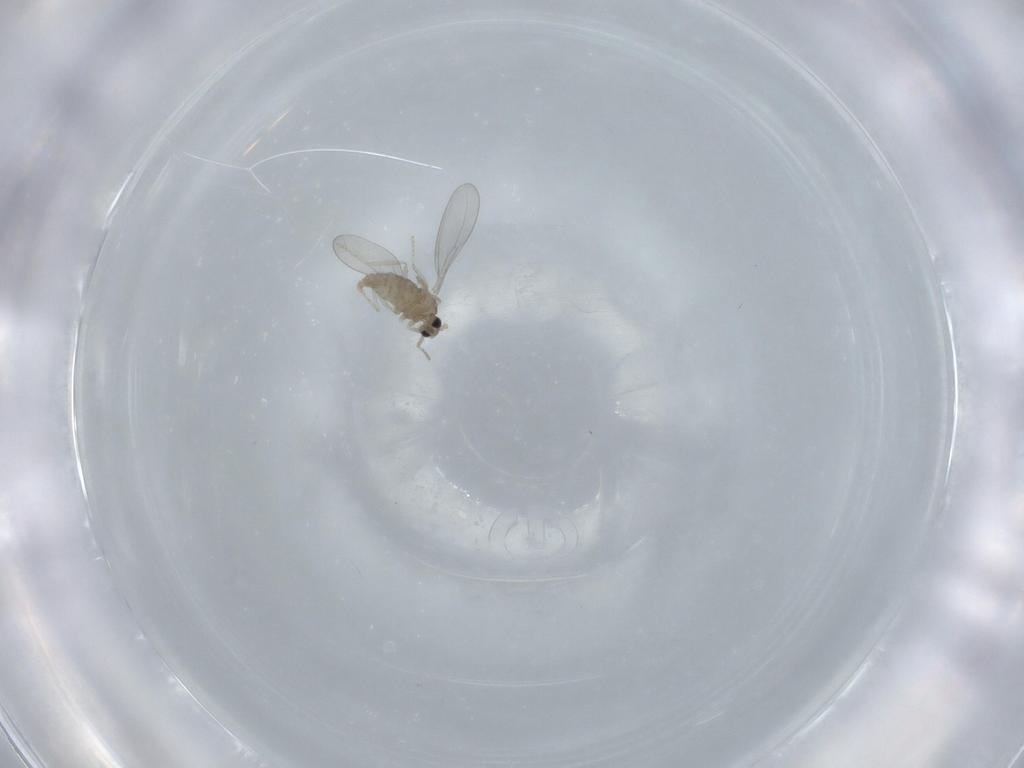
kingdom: Animalia
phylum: Arthropoda
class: Insecta
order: Diptera
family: Cecidomyiidae
